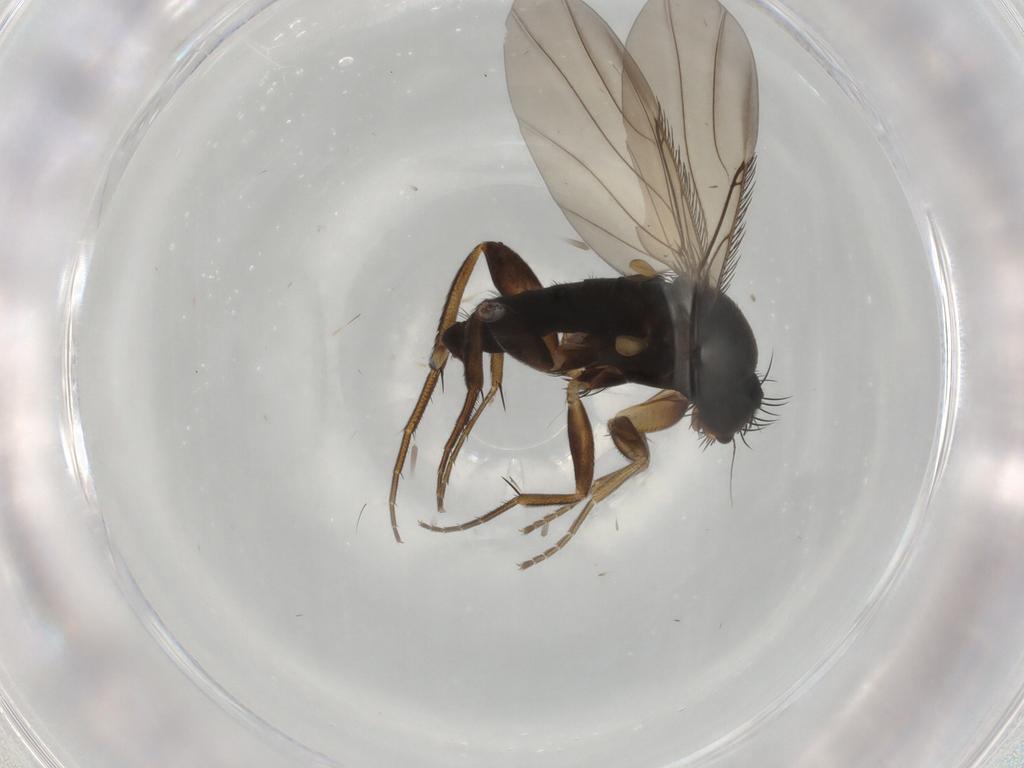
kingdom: Animalia
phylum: Arthropoda
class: Insecta
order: Diptera
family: Phoridae
